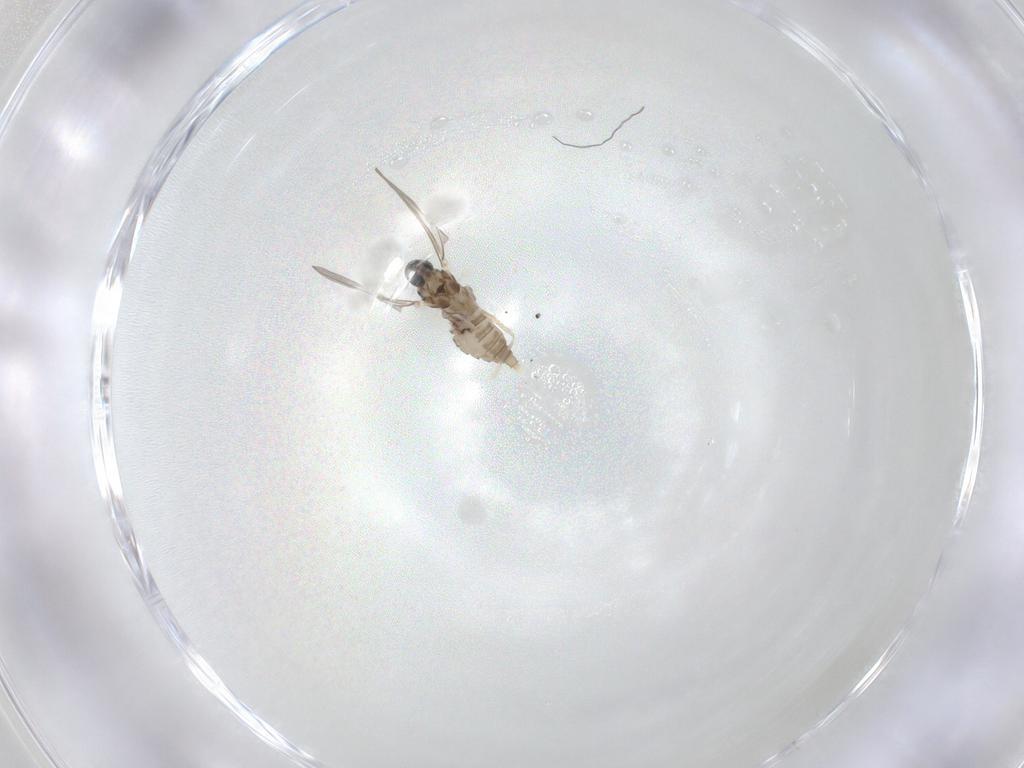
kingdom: Animalia
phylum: Arthropoda
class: Insecta
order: Diptera
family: Cecidomyiidae
